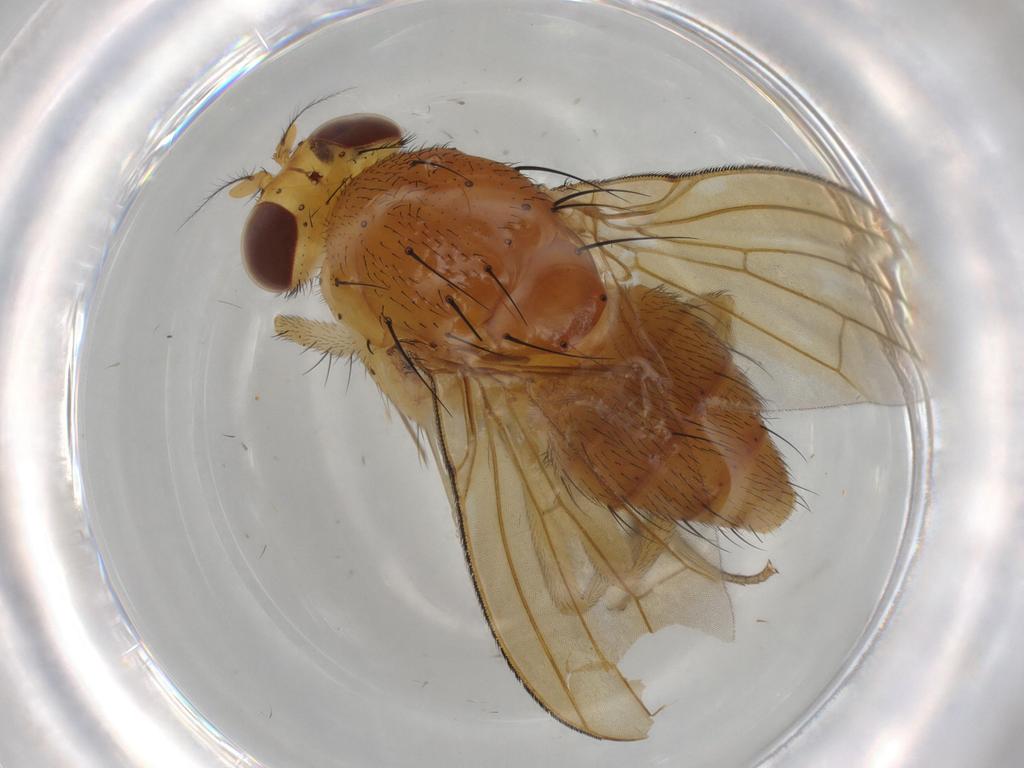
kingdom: Animalia
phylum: Arthropoda
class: Insecta
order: Diptera
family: Cecidomyiidae
